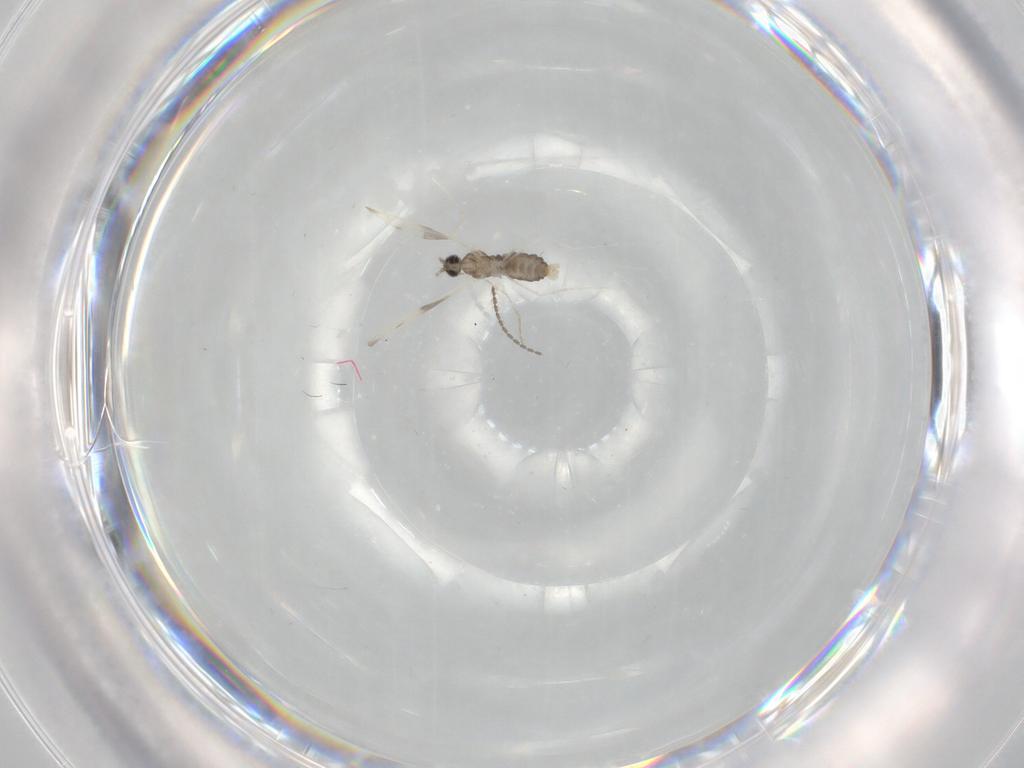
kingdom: Animalia
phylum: Arthropoda
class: Insecta
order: Diptera
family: Cecidomyiidae
